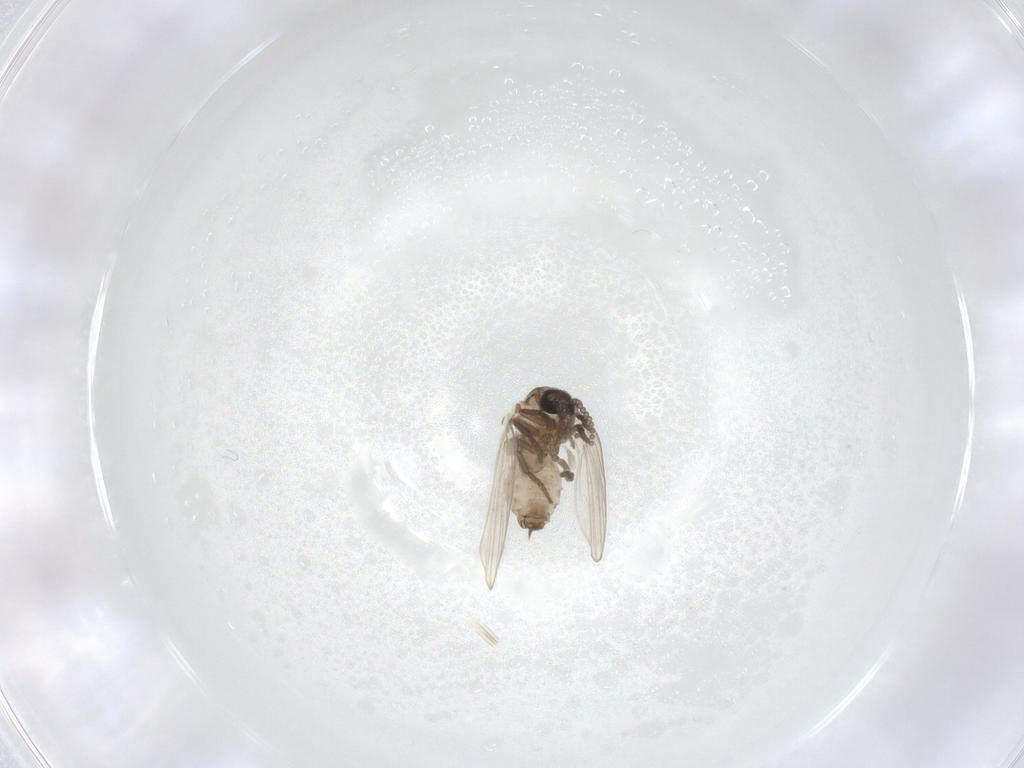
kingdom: Animalia
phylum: Arthropoda
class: Insecta
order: Diptera
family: Psychodidae
